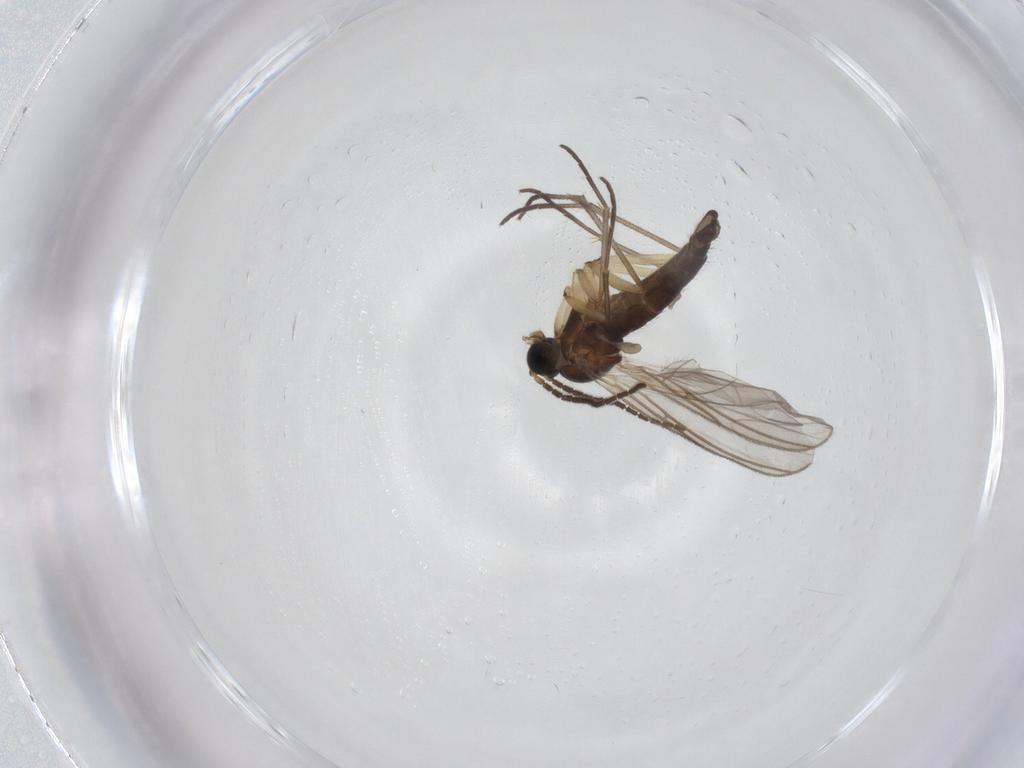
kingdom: Animalia
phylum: Arthropoda
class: Insecta
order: Diptera
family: Sciaridae
